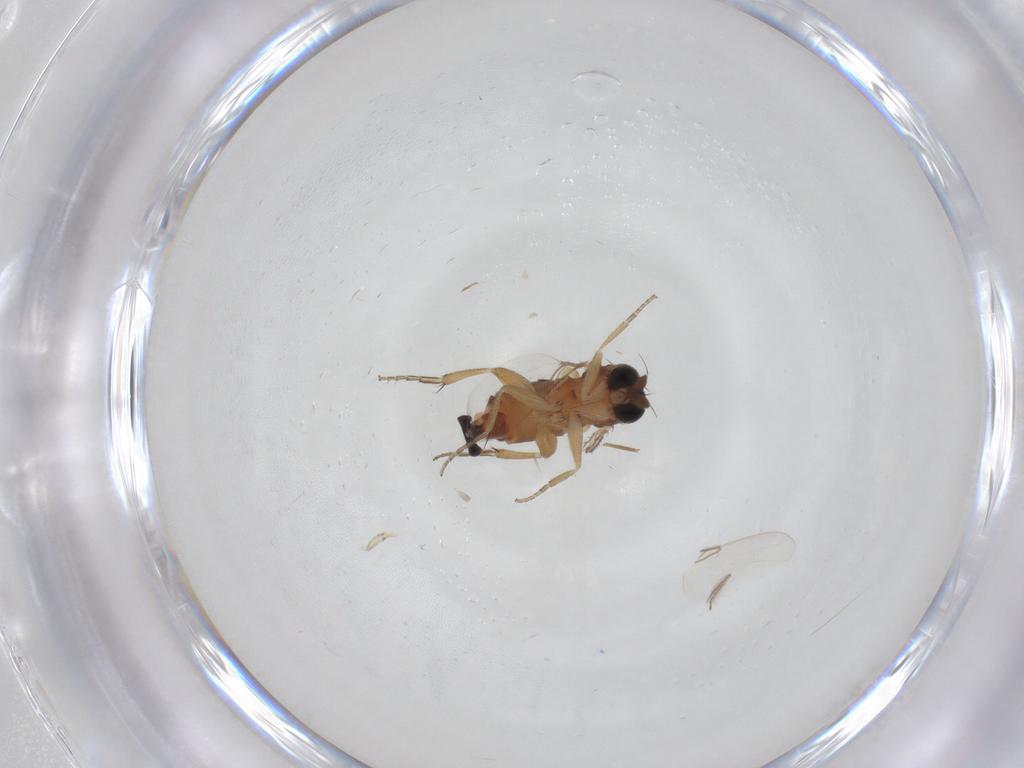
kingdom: Animalia
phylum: Arthropoda
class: Insecta
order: Diptera
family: Phoridae
